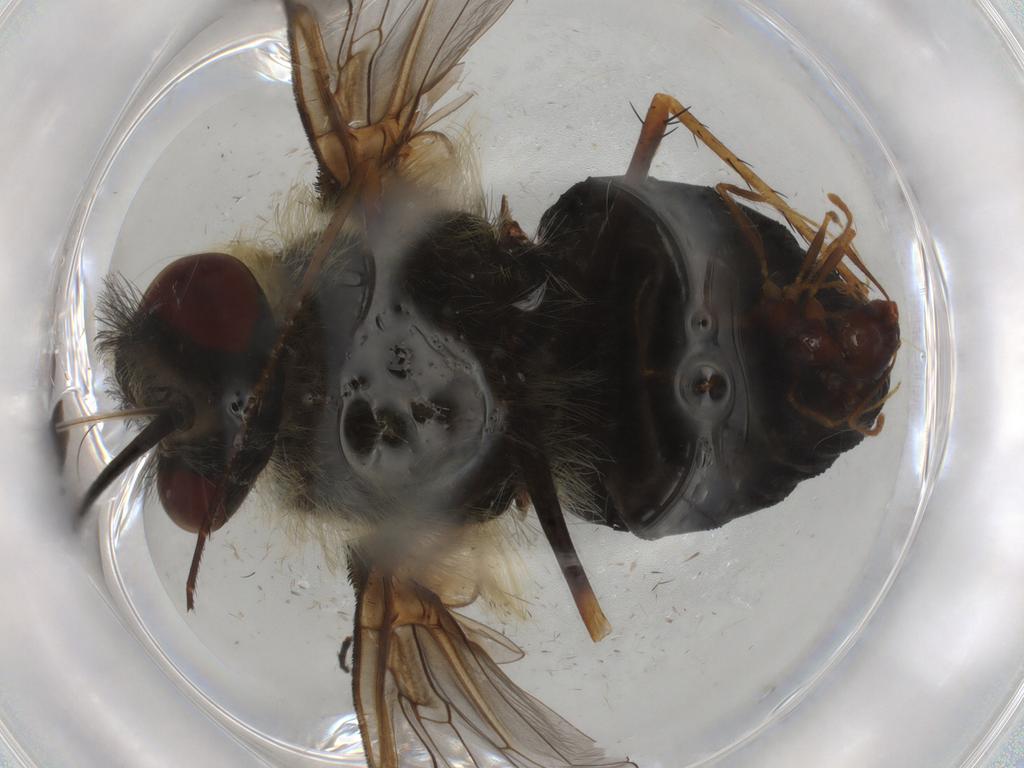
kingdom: Animalia
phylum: Arthropoda
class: Insecta
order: Diptera
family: Bombyliidae
